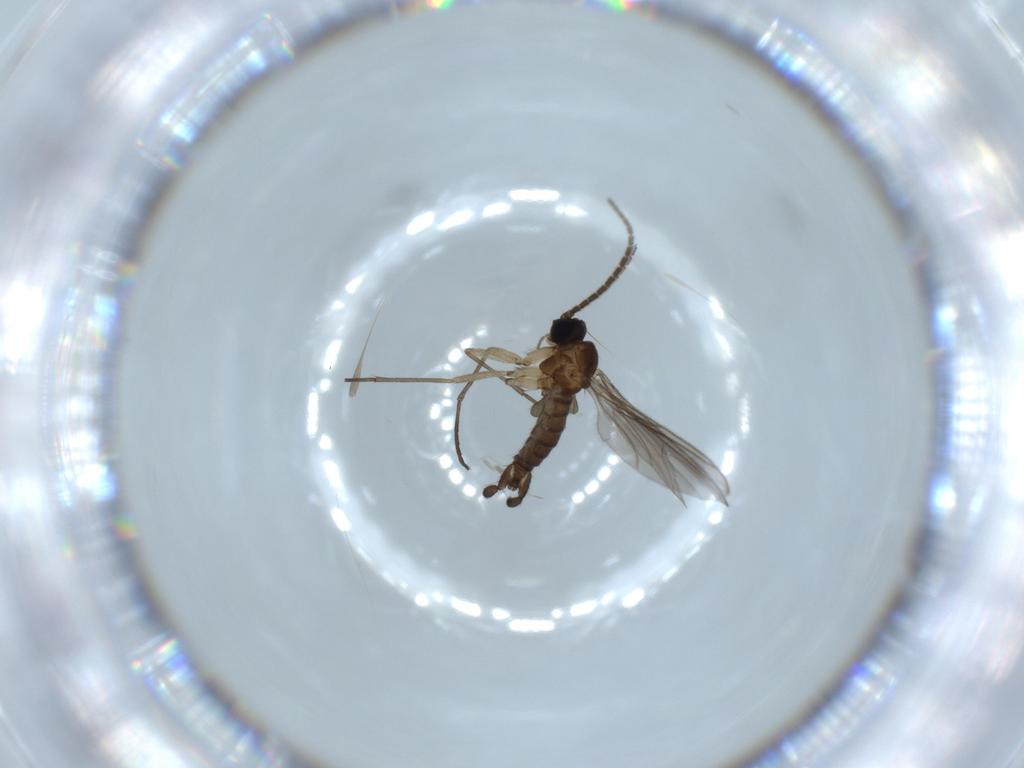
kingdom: Animalia
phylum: Arthropoda
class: Insecta
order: Diptera
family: Sciaridae
